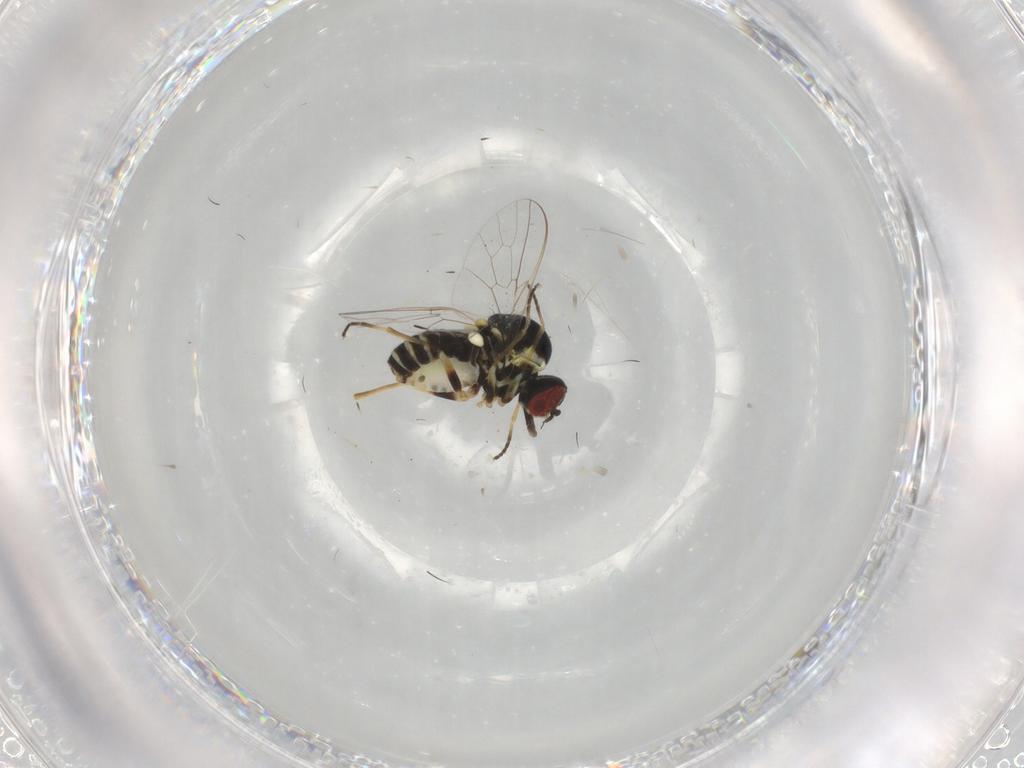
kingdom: Animalia
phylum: Arthropoda
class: Insecta
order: Diptera
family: Bombyliidae
